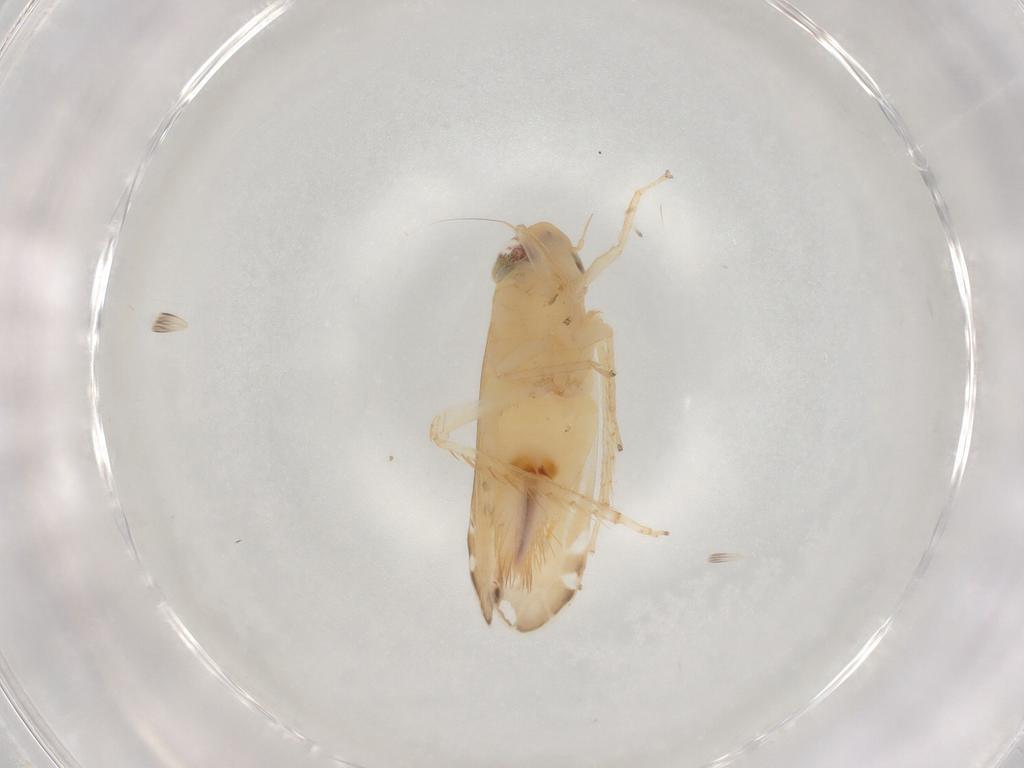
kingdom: Animalia
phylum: Arthropoda
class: Insecta
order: Hemiptera
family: Cicadellidae
